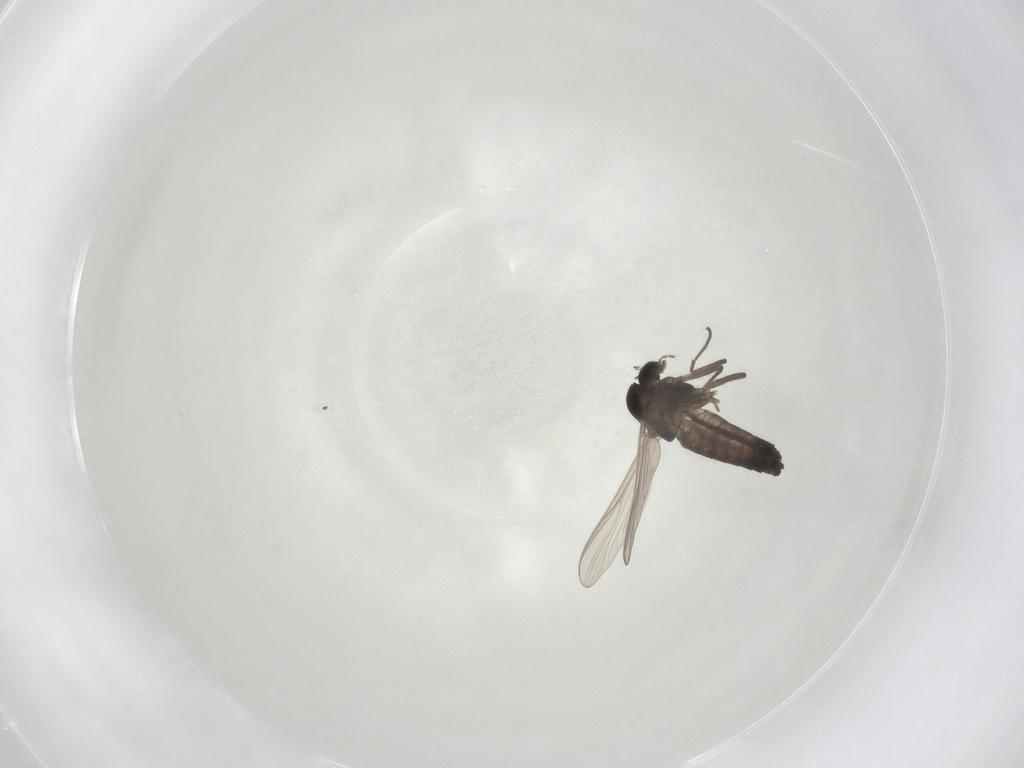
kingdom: Animalia
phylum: Arthropoda
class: Insecta
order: Diptera
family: Chironomidae
